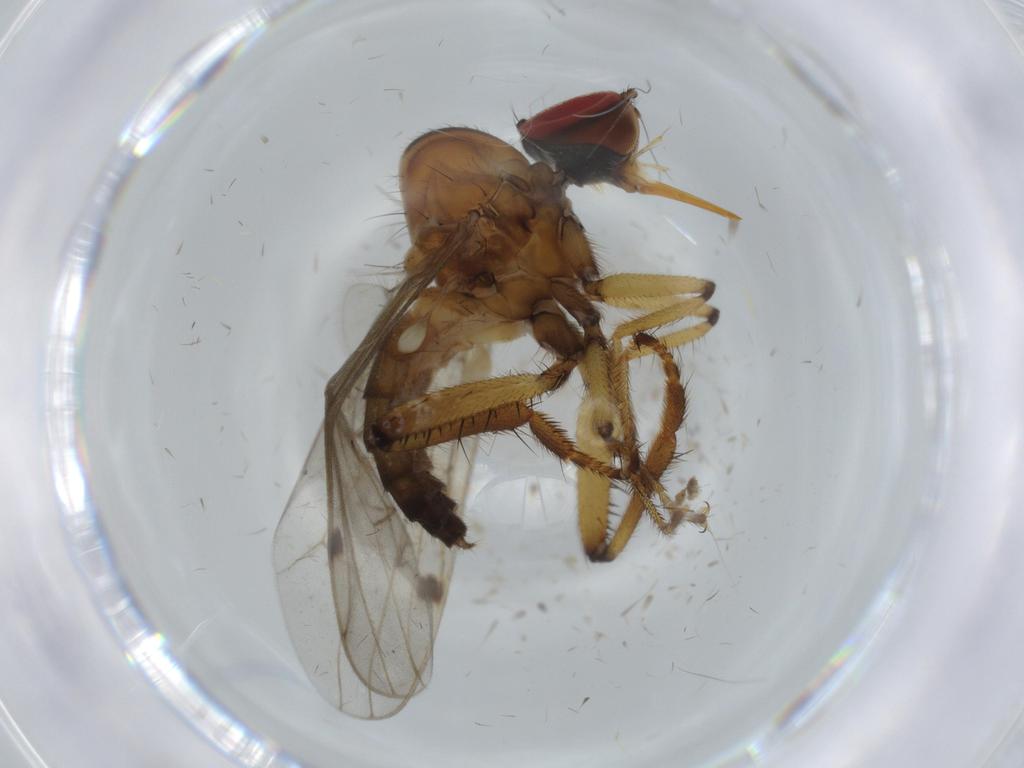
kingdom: Animalia
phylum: Arthropoda
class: Insecta
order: Diptera
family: Hybotidae
